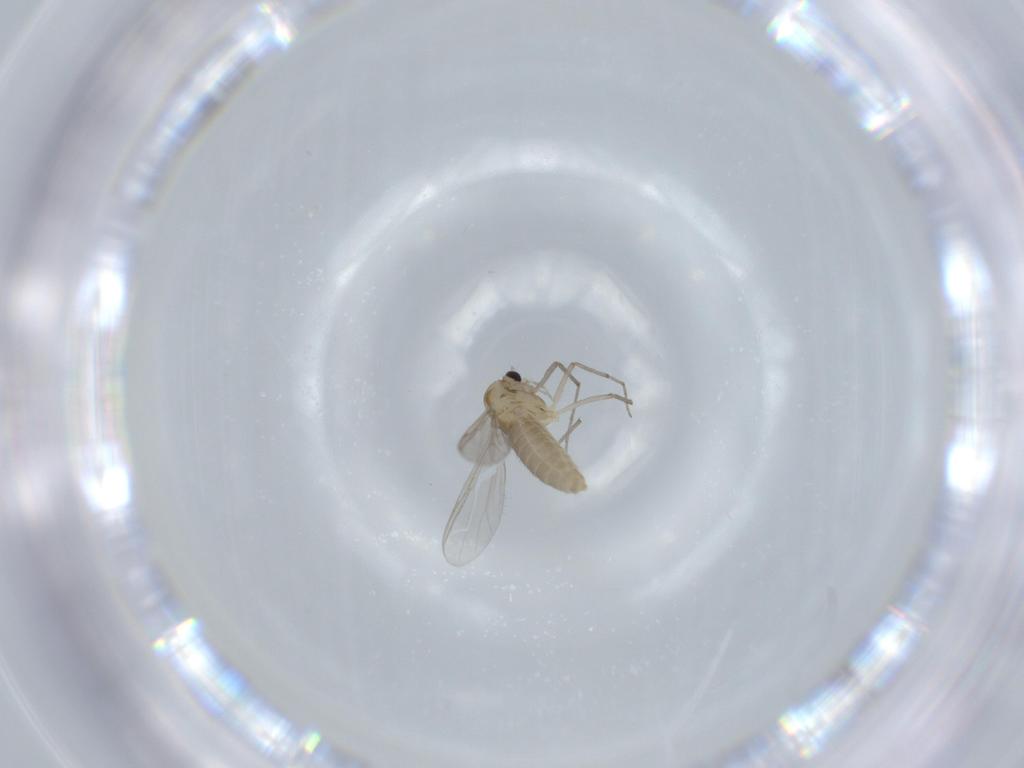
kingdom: Animalia
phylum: Arthropoda
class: Insecta
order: Diptera
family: Chironomidae
